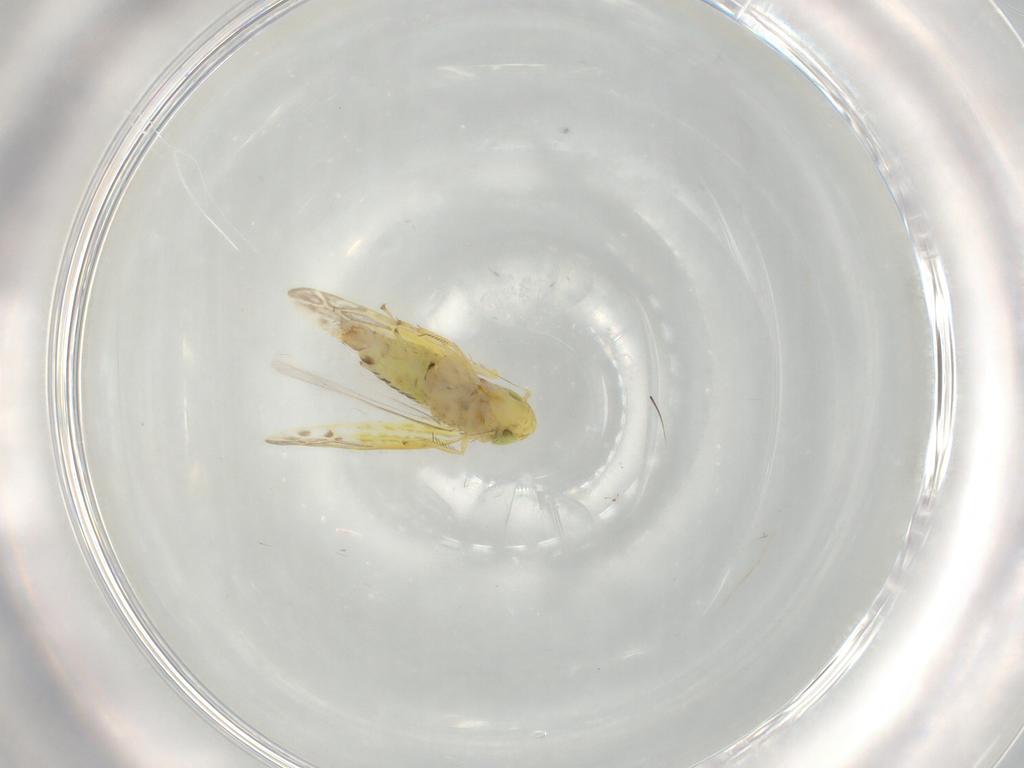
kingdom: Animalia
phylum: Arthropoda
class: Insecta
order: Hemiptera
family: Cicadellidae
